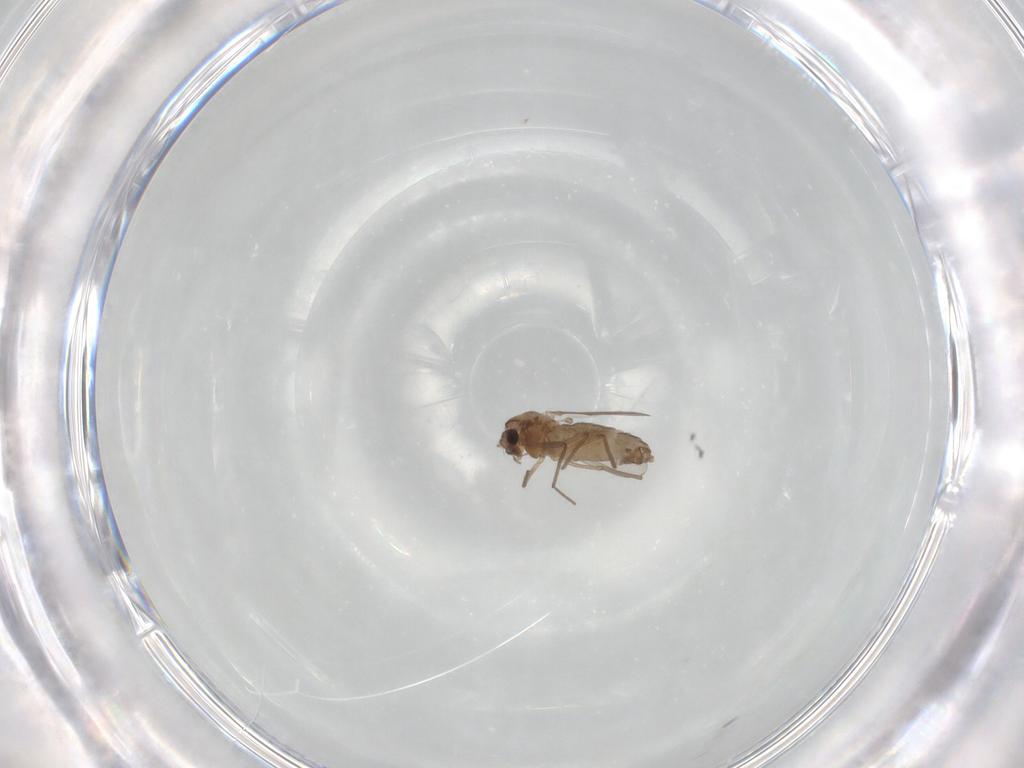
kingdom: Animalia
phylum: Arthropoda
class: Insecta
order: Diptera
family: Chironomidae
